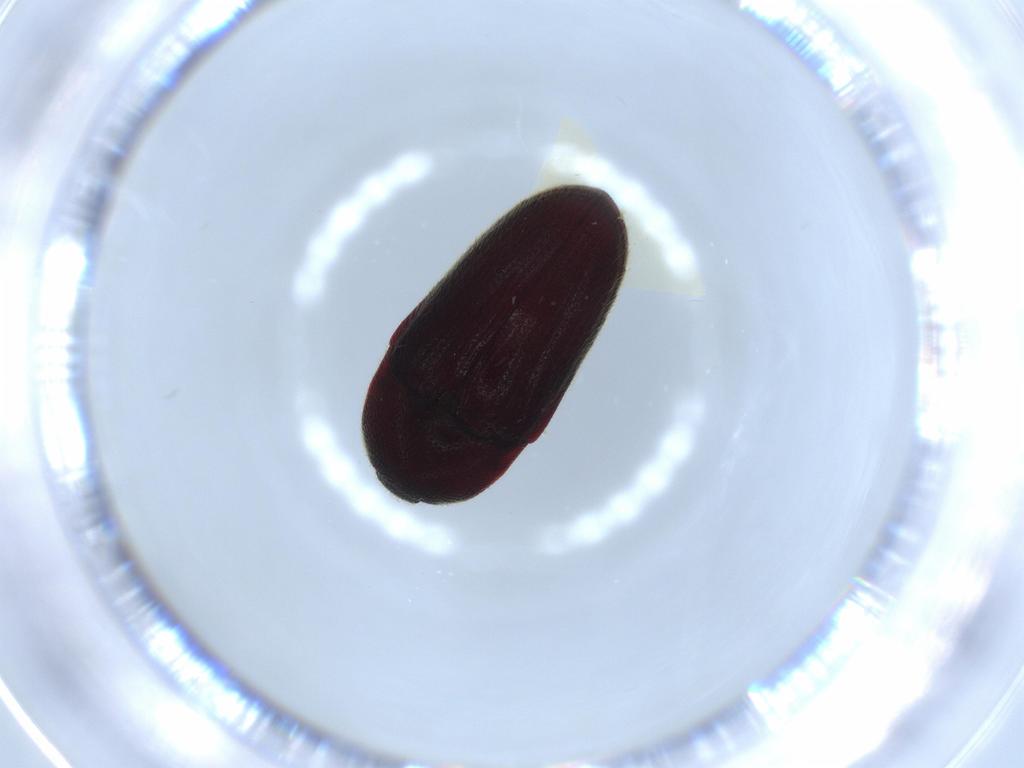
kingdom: Animalia
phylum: Arthropoda
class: Insecta
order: Coleoptera
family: Throscidae
